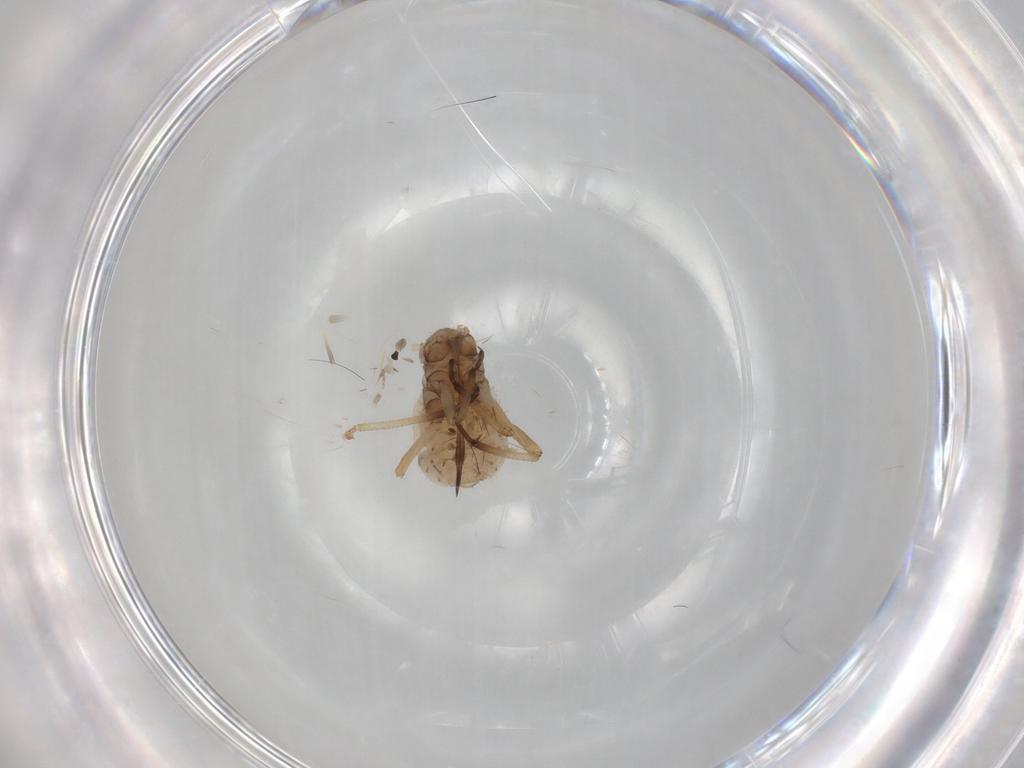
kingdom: Animalia
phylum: Arthropoda
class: Insecta
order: Hemiptera
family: Aphididae
